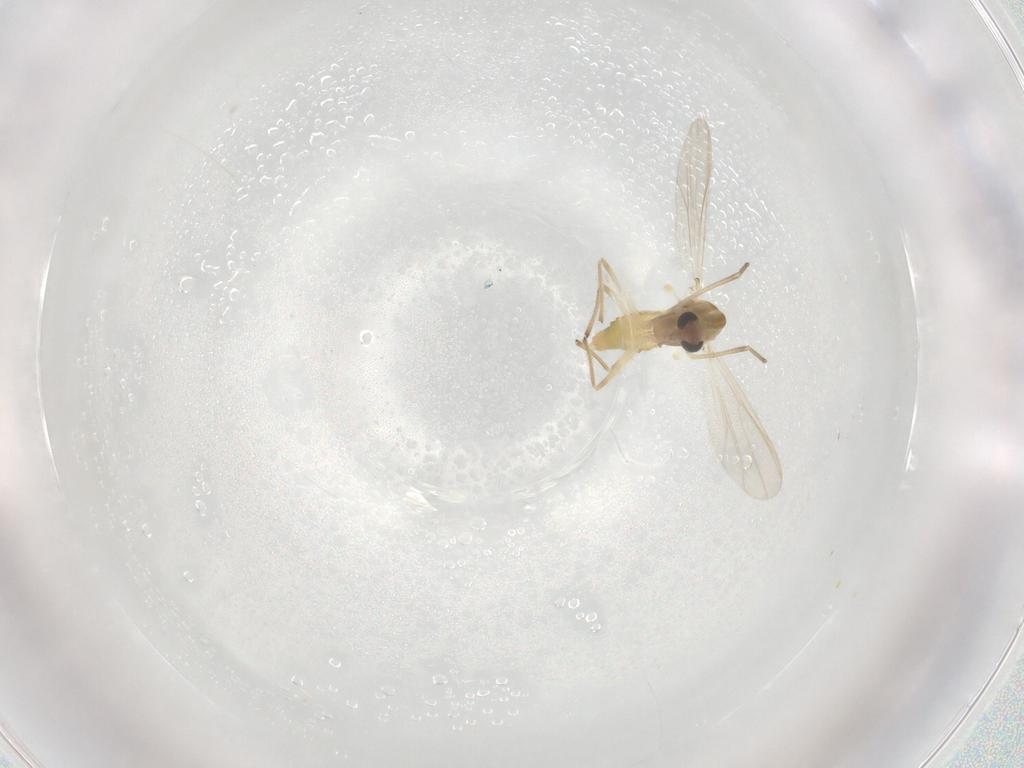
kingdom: Animalia
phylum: Arthropoda
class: Insecta
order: Diptera
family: Chironomidae
